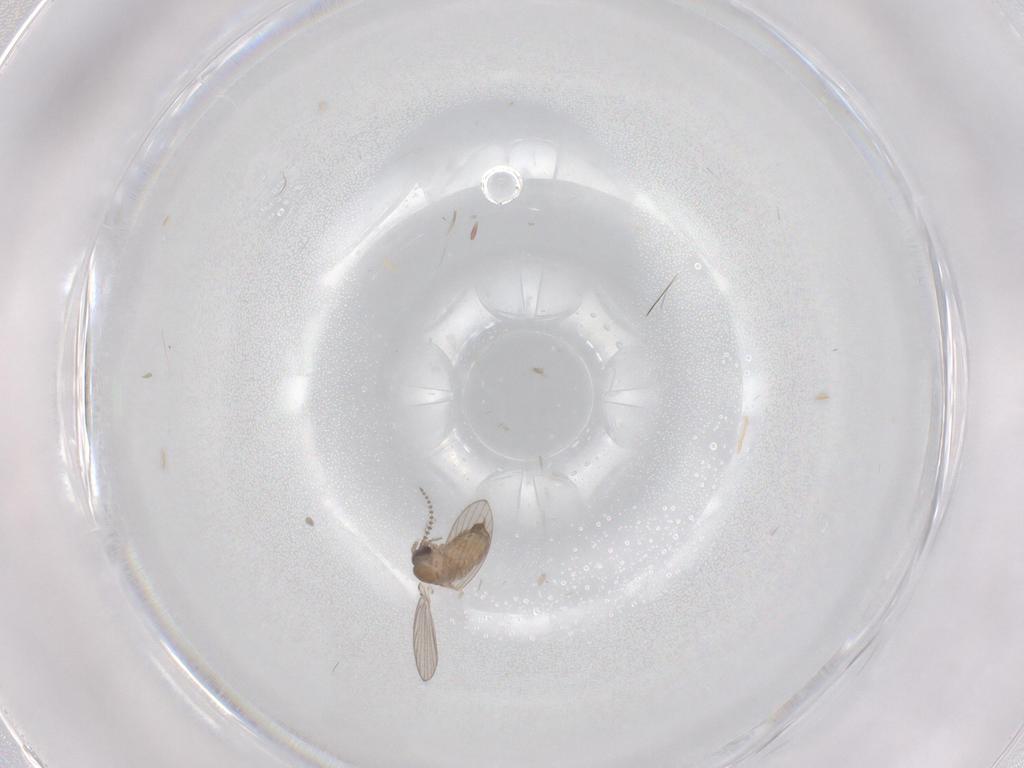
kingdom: Animalia
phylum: Arthropoda
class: Insecta
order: Diptera
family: Psychodidae
